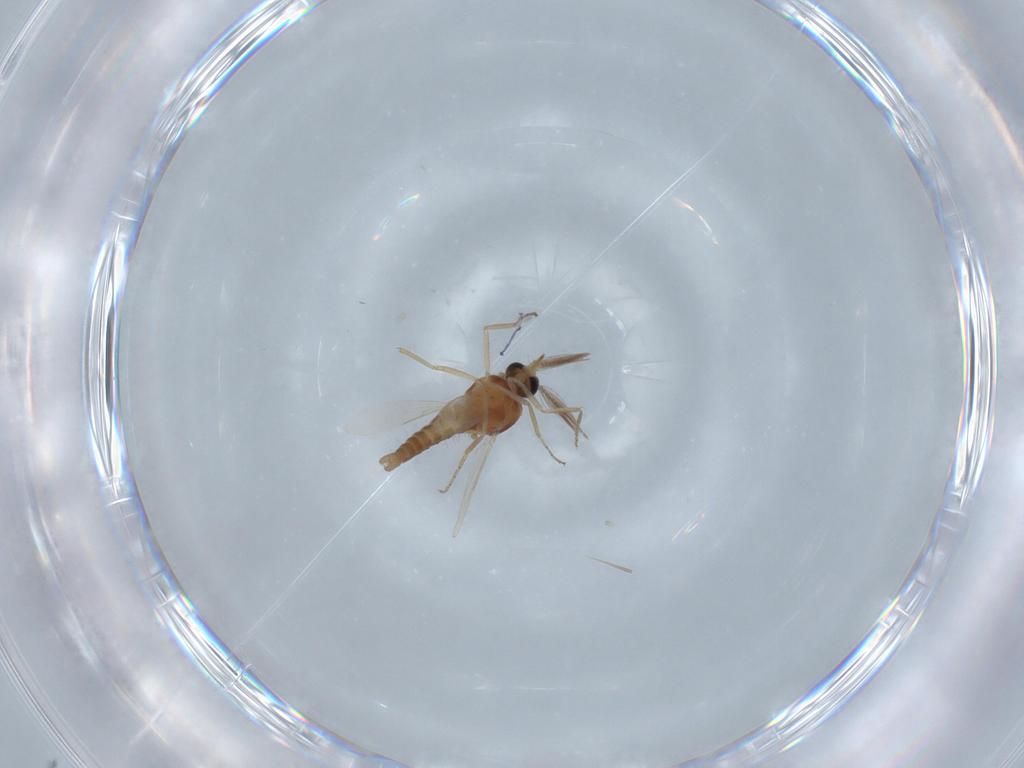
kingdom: Animalia
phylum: Arthropoda
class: Insecta
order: Diptera
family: Ceratopogonidae
